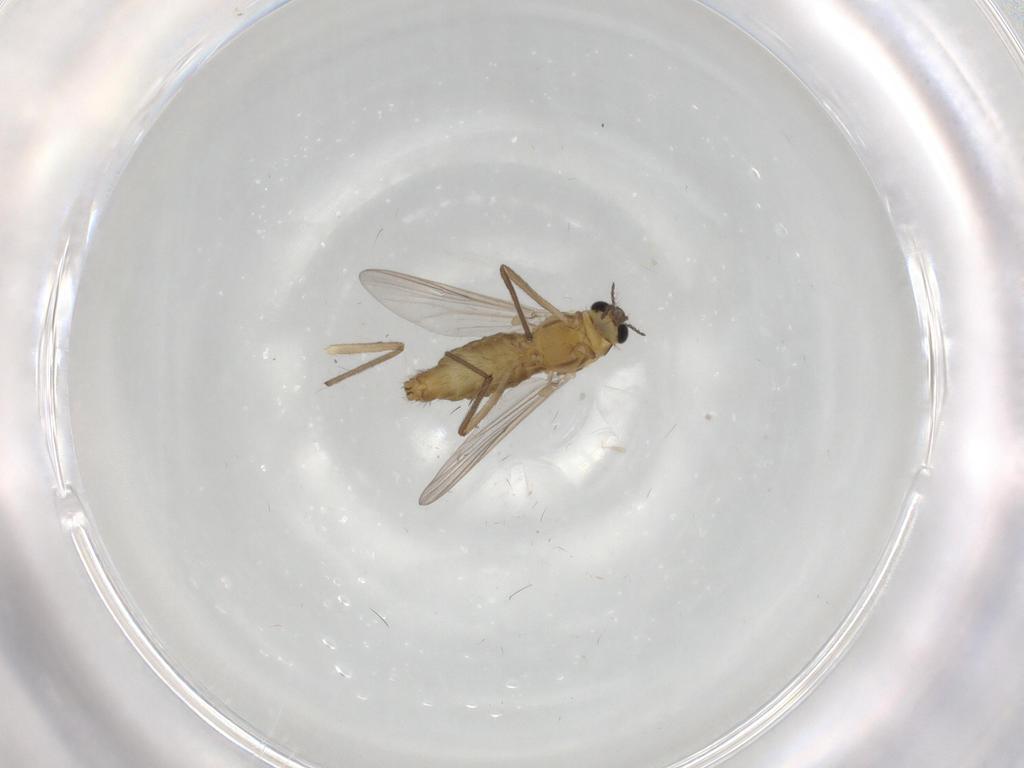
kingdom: Animalia
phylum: Arthropoda
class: Insecta
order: Diptera
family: Chironomidae
